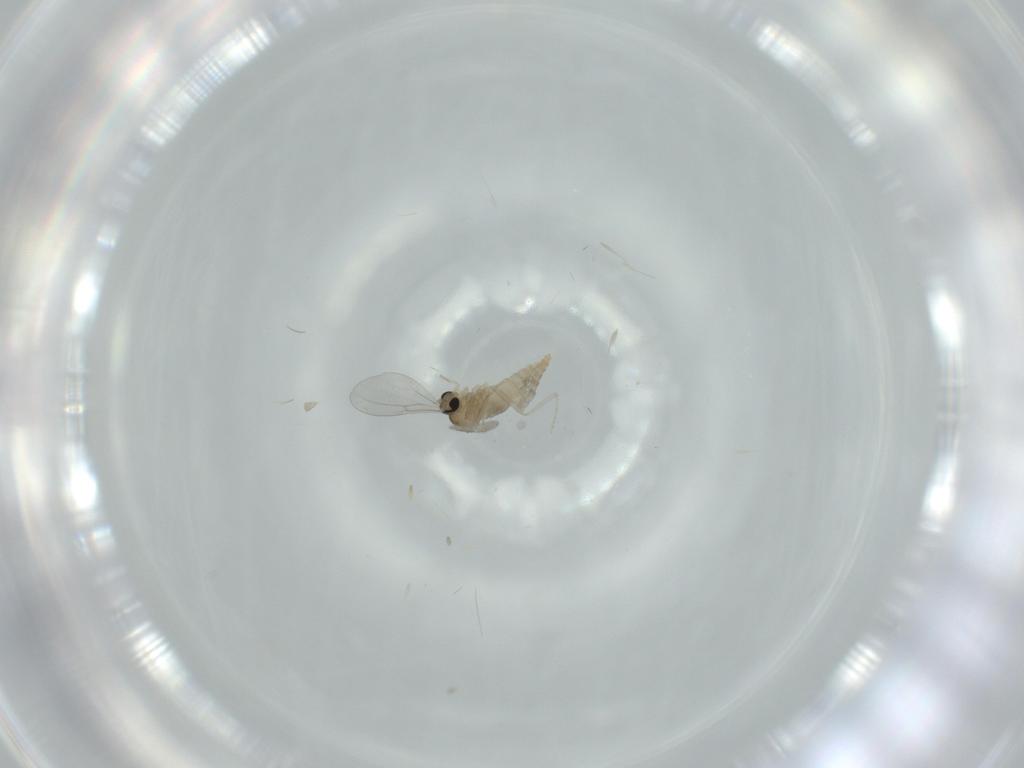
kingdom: Animalia
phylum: Arthropoda
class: Insecta
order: Diptera
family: Cecidomyiidae
